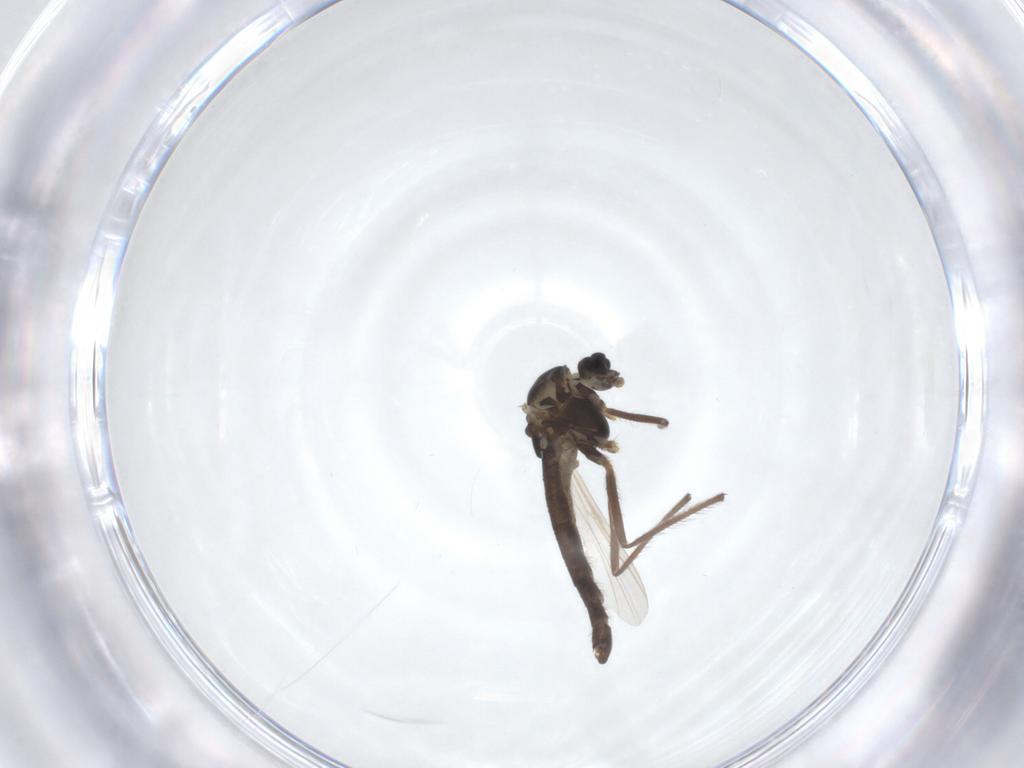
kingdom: Animalia
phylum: Arthropoda
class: Insecta
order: Diptera
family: Chironomidae
